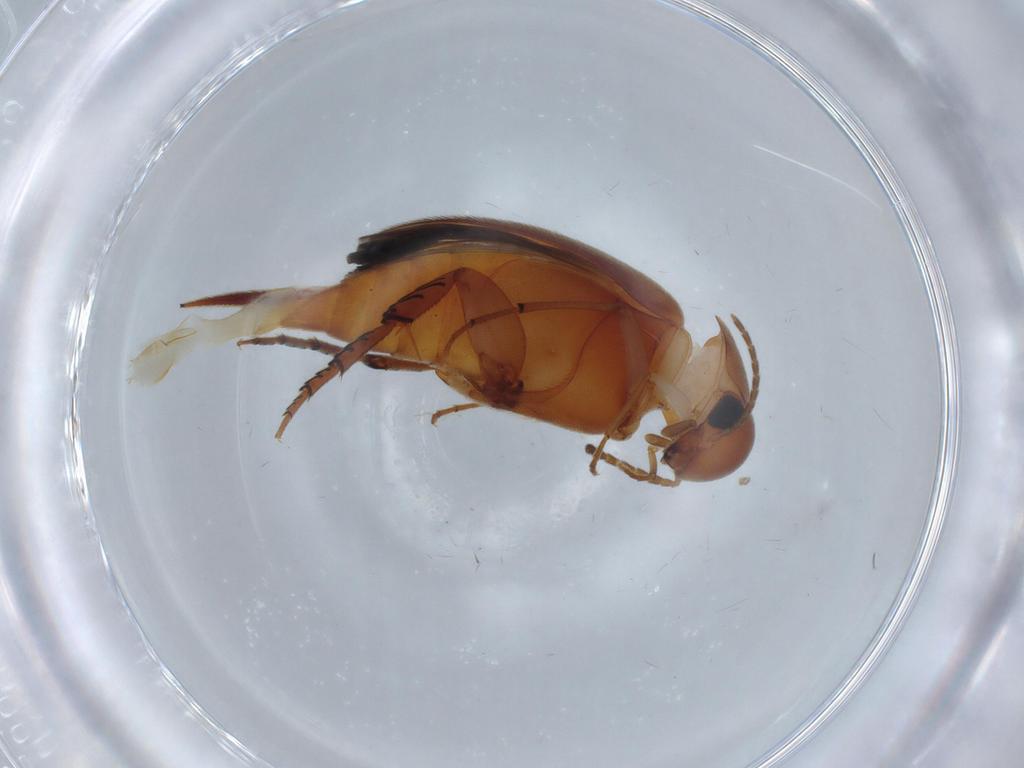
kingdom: Animalia
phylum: Arthropoda
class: Insecta
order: Coleoptera
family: Mordellidae
